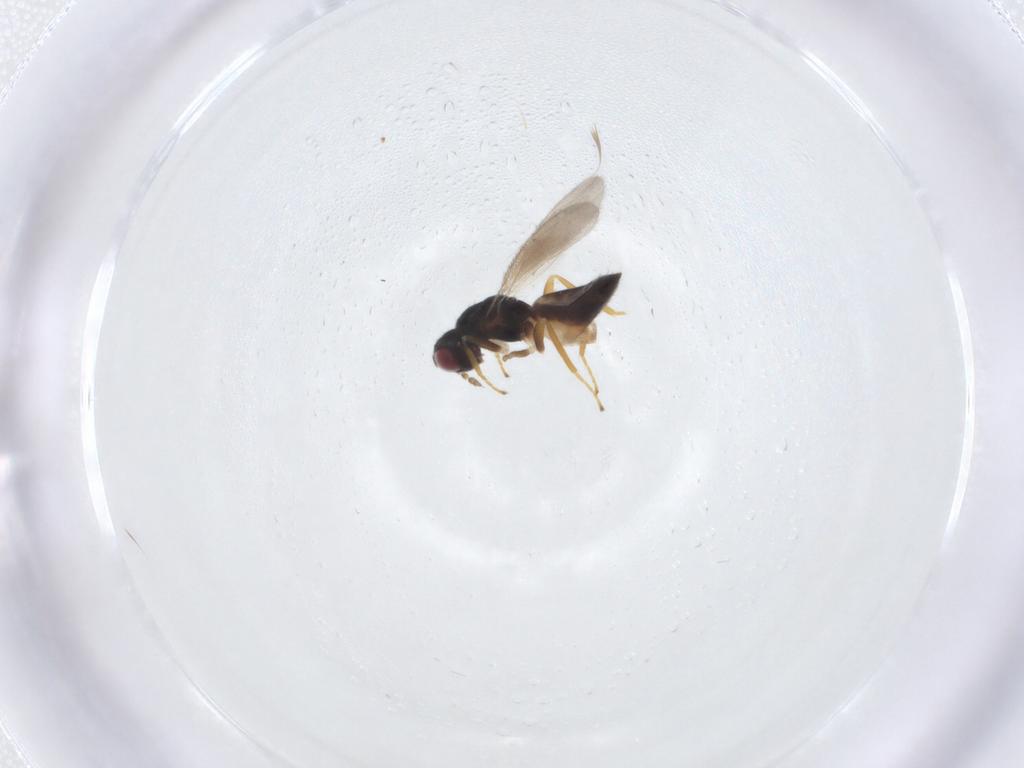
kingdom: Animalia
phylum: Arthropoda
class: Insecta
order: Hymenoptera
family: Eulophidae
